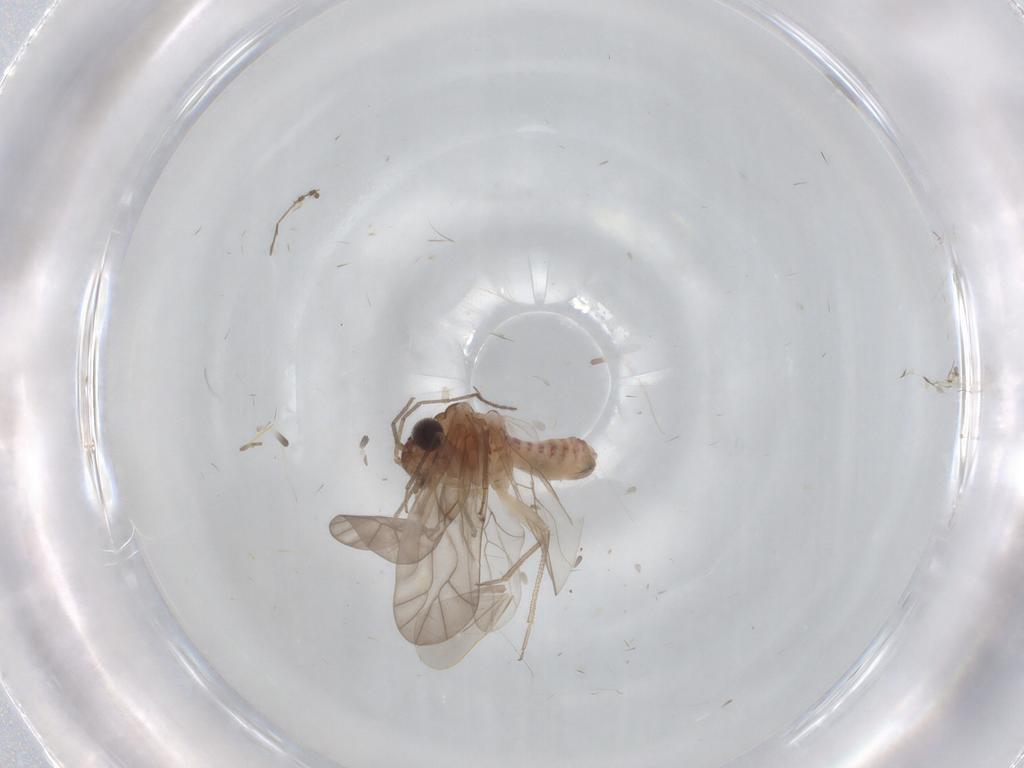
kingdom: Animalia
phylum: Arthropoda
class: Insecta
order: Psocodea
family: Peripsocidae
